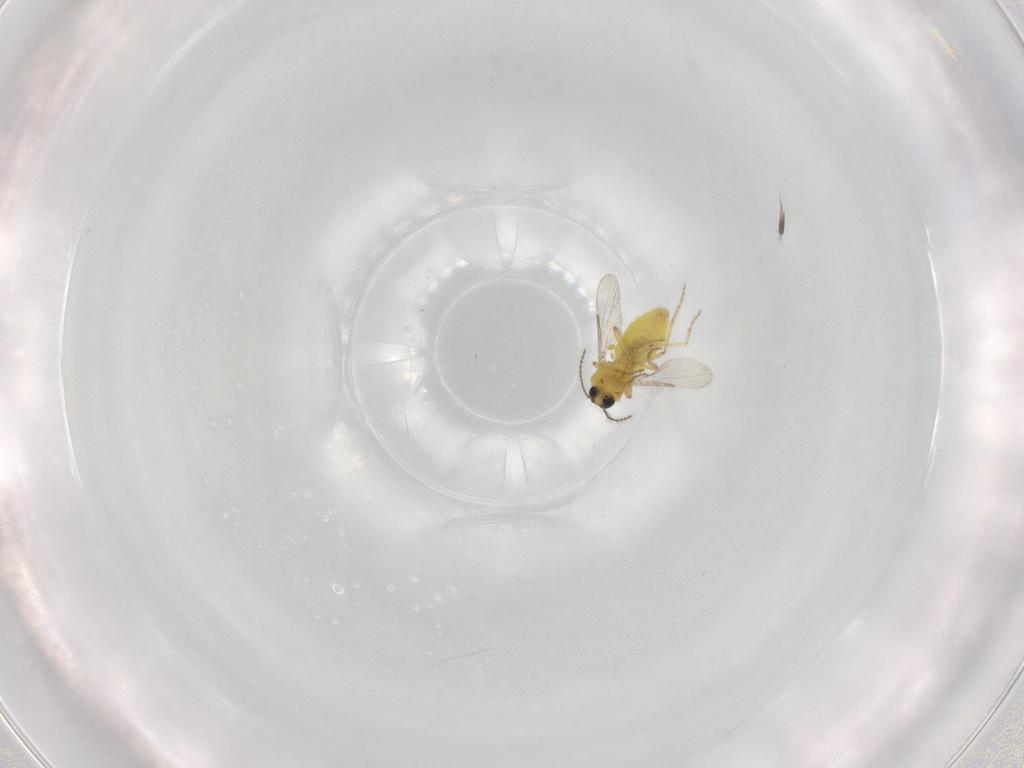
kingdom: Animalia
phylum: Arthropoda
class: Insecta
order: Diptera
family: Ceratopogonidae
